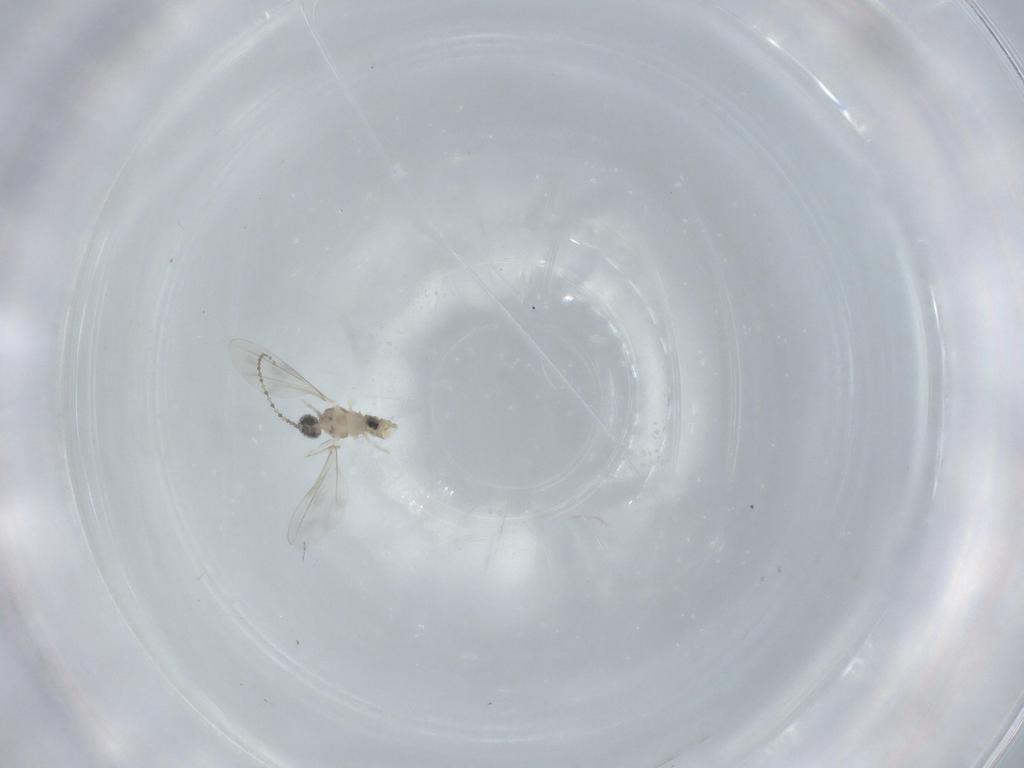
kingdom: Animalia
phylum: Arthropoda
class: Insecta
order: Diptera
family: Cecidomyiidae
